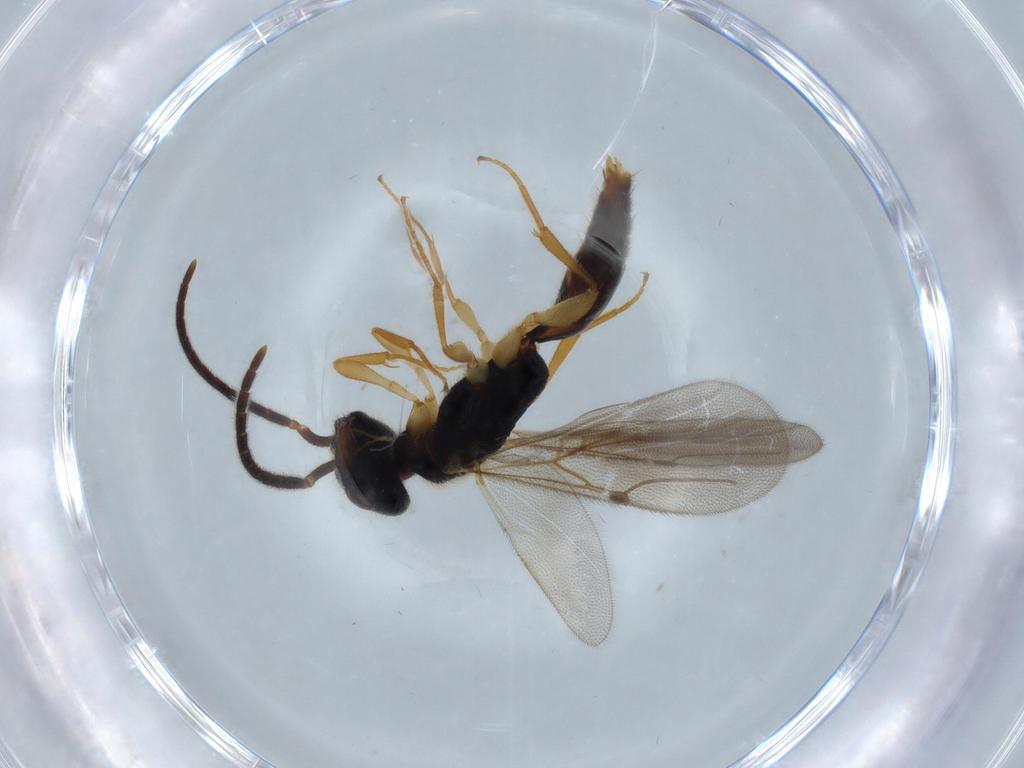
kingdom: Animalia
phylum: Arthropoda
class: Insecta
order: Hymenoptera
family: Bethylidae
